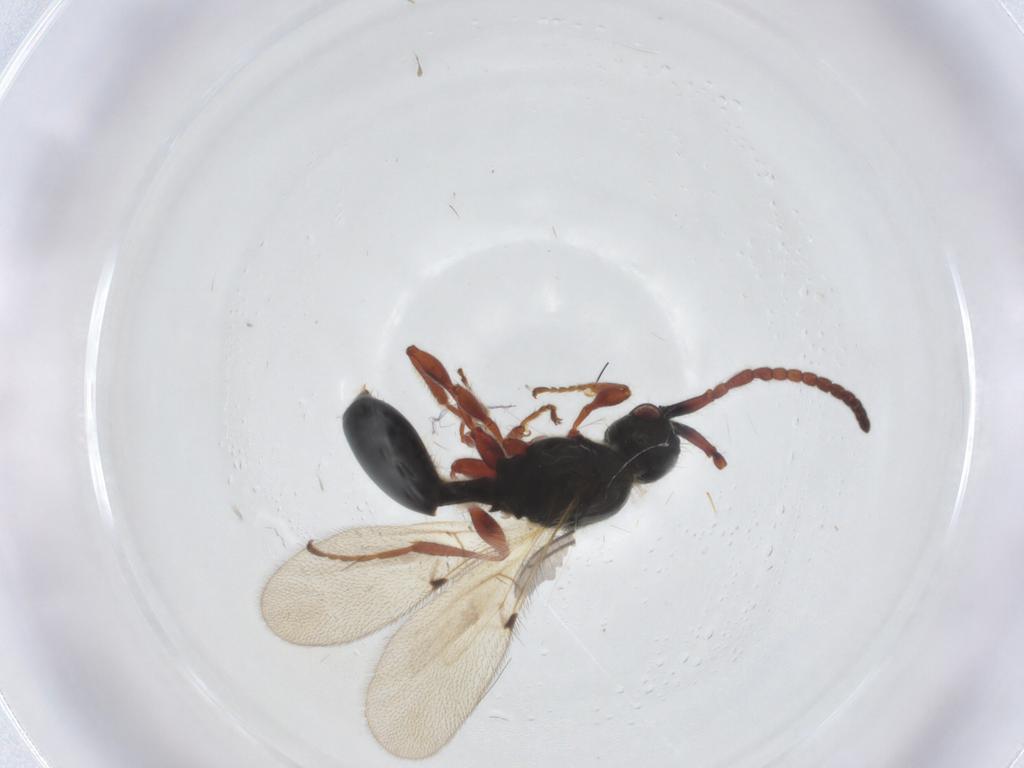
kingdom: Animalia
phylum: Arthropoda
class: Insecta
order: Hymenoptera
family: Diapriidae
